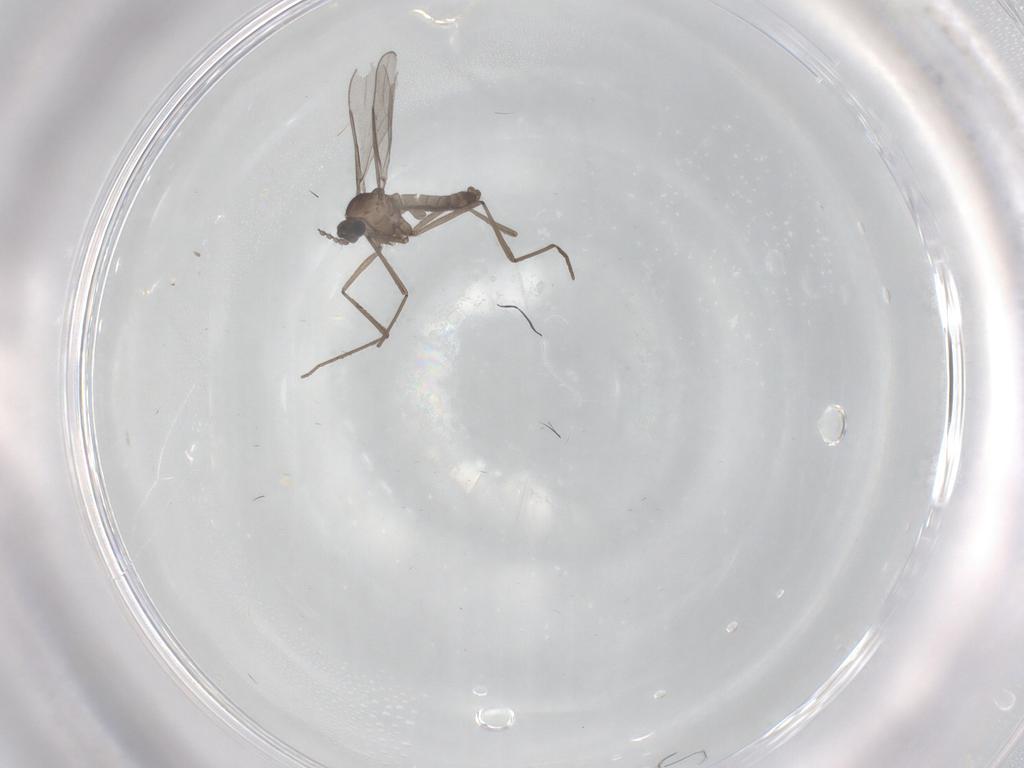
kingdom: Animalia
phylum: Arthropoda
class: Insecta
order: Diptera
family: Cecidomyiidae
